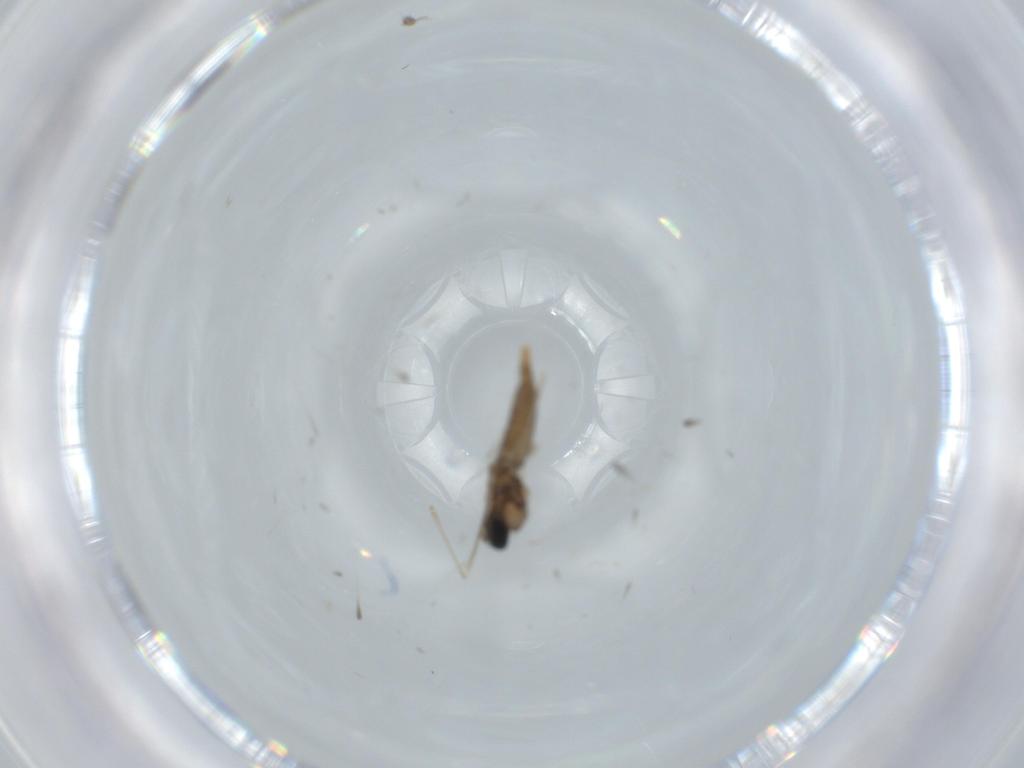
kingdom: Animalia
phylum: Arthropoda
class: Insecta
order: Diptera
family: Cecidomyiidae
